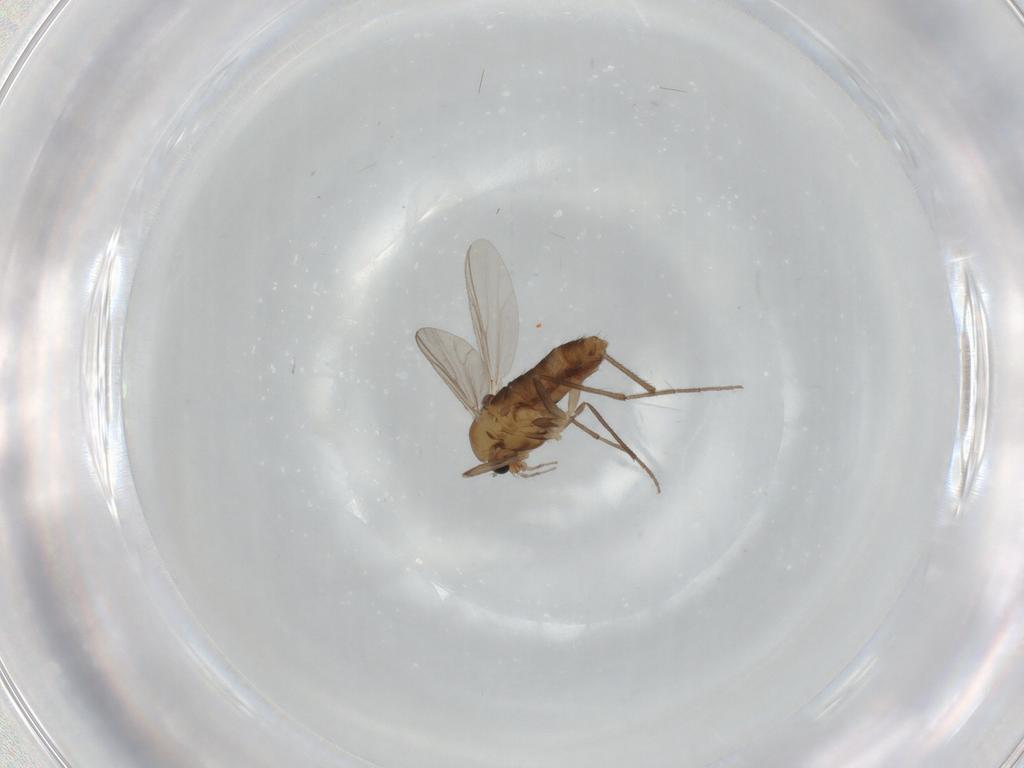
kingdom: Animalia
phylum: Arthropoda
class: Insecta
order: Diptera
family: Chironomidae
